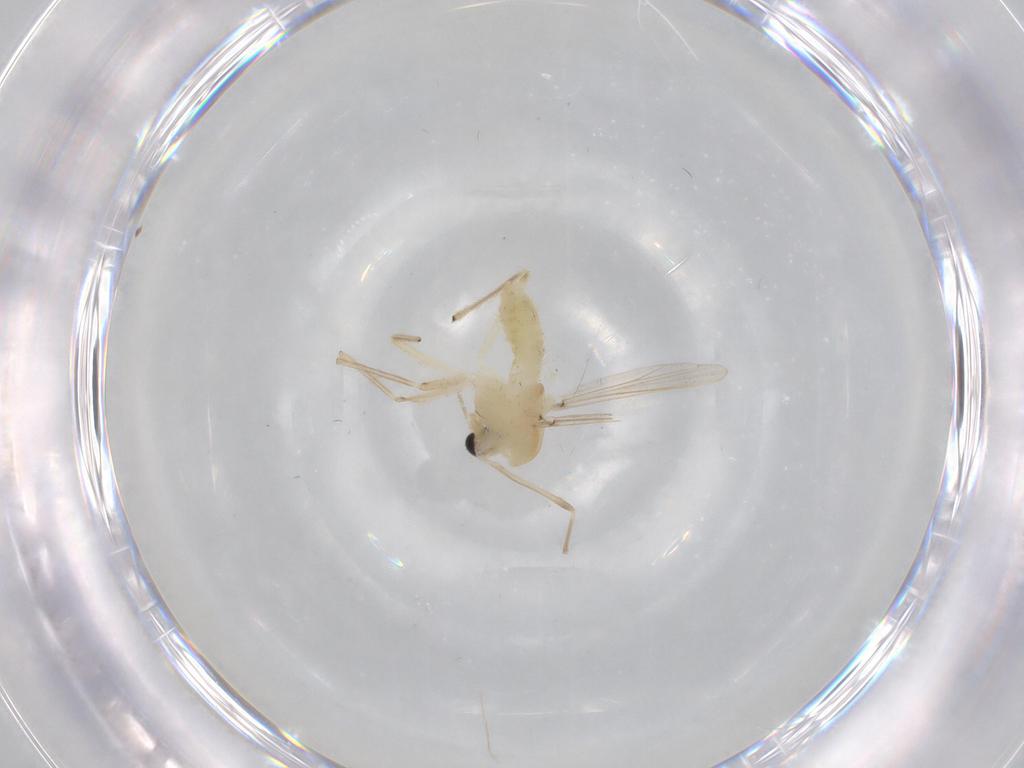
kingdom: Animalia
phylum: Arthropoda
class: Insecta
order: Diptera
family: Chironomidae
